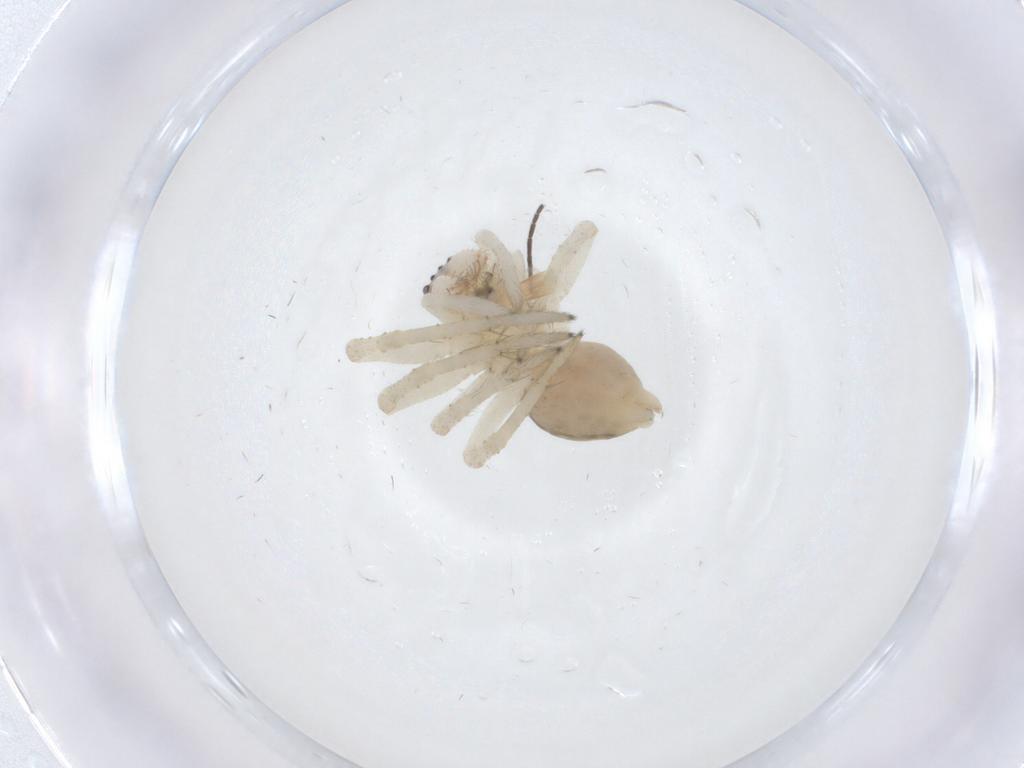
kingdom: Animalia
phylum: Arthropoda
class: Arachnida
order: Araneae
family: Dictynidae
